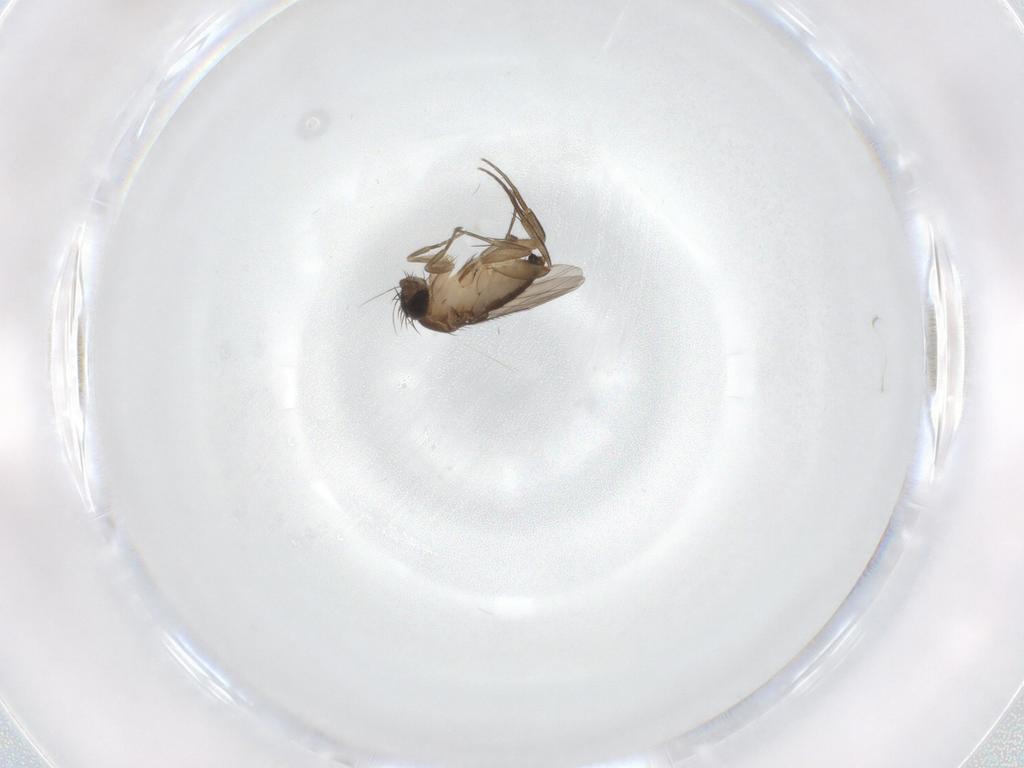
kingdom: Animalia
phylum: Arthropoda
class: Insecta
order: Diptera
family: Phoridae
